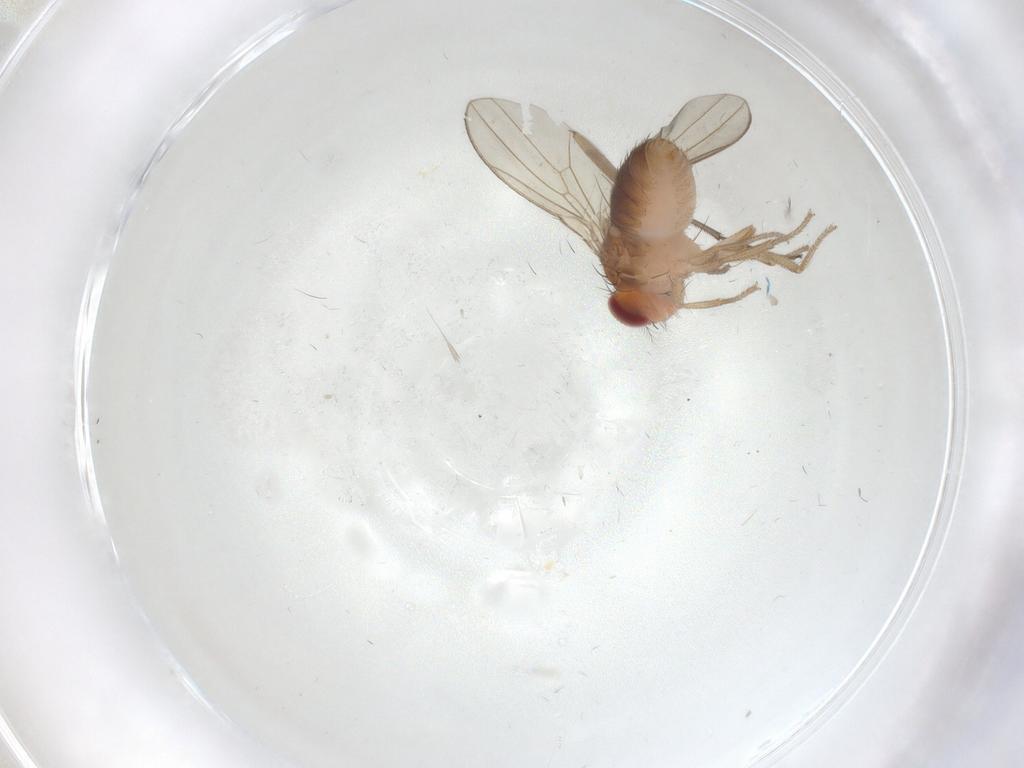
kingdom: Animalia
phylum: Arthropoda
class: Insecta
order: Diptera
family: Drosophilidae
